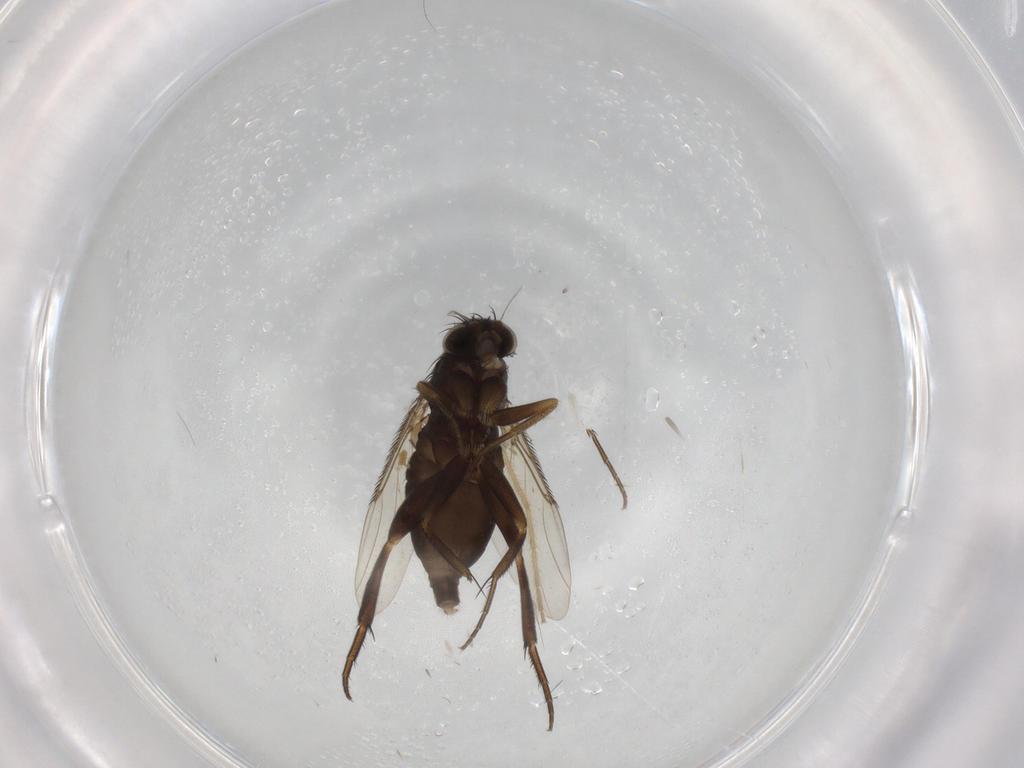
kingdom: Animalia
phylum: Arthropoda
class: Insecta
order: Diptera
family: Phoridae
